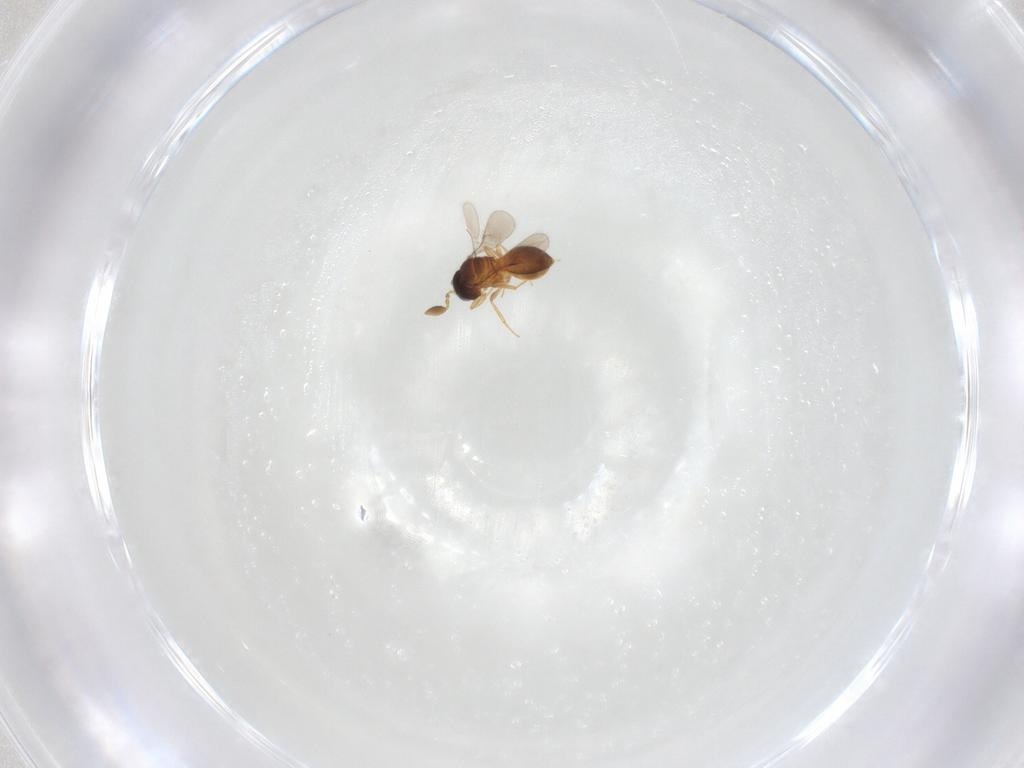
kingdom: Animalia
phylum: Arthropoda
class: Insecta
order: Hymenoptera
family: Scelionidae
